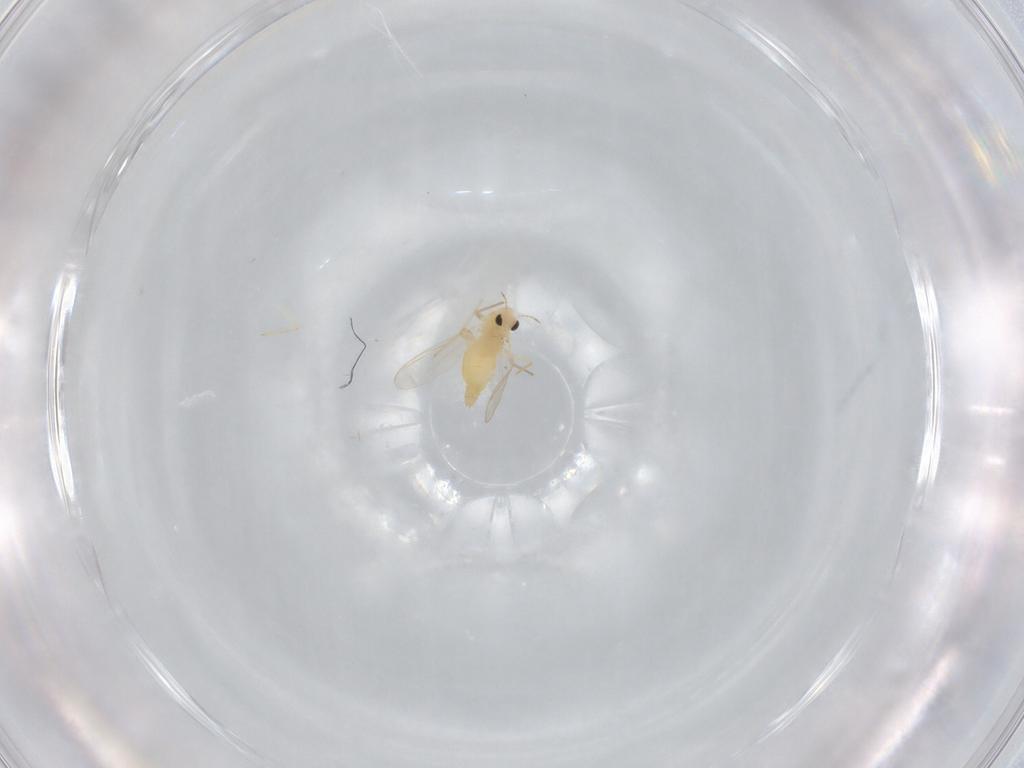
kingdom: Animalia
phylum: Arthropoda
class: Insecta
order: Diptera
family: Chironomidae
